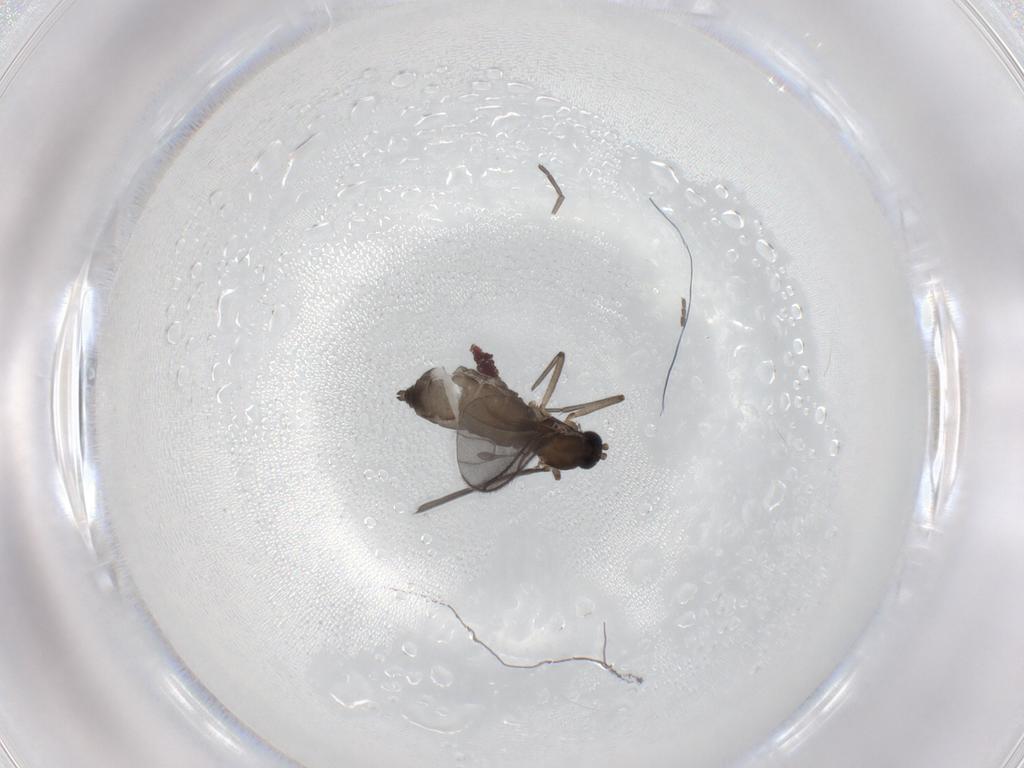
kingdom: Animalia
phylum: Arthropoda
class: Insecta
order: Diptera
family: Sciaridae
